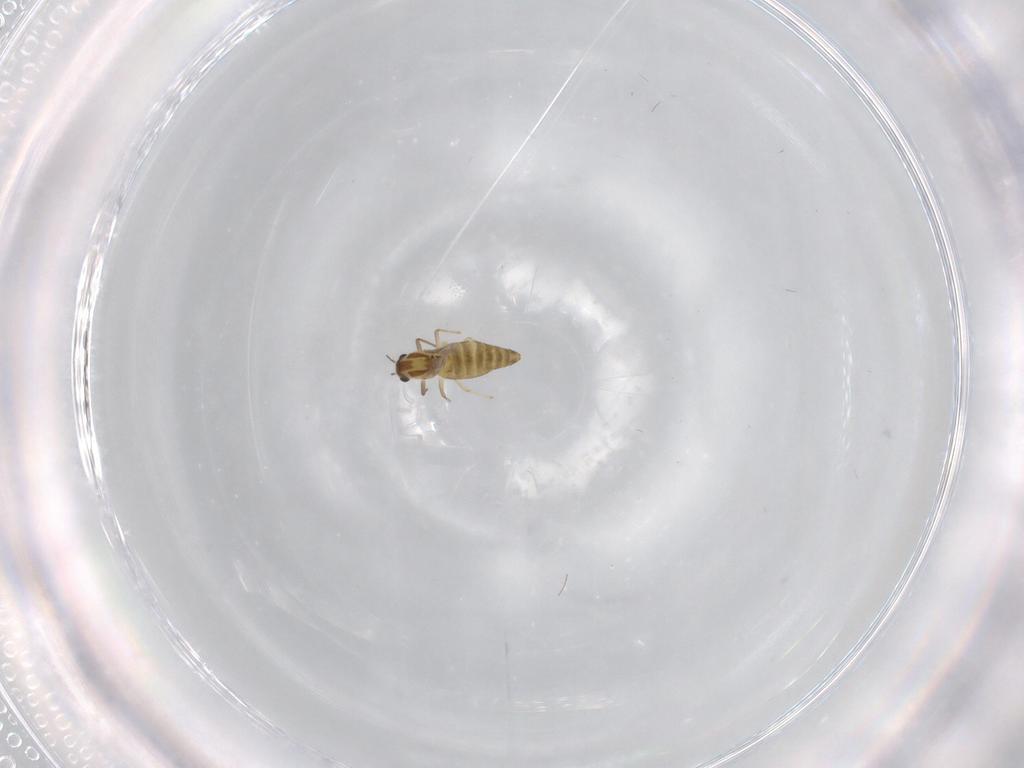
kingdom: Animalia
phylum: Arthropoda
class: Insecta
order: Diptera
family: Chironomidae
